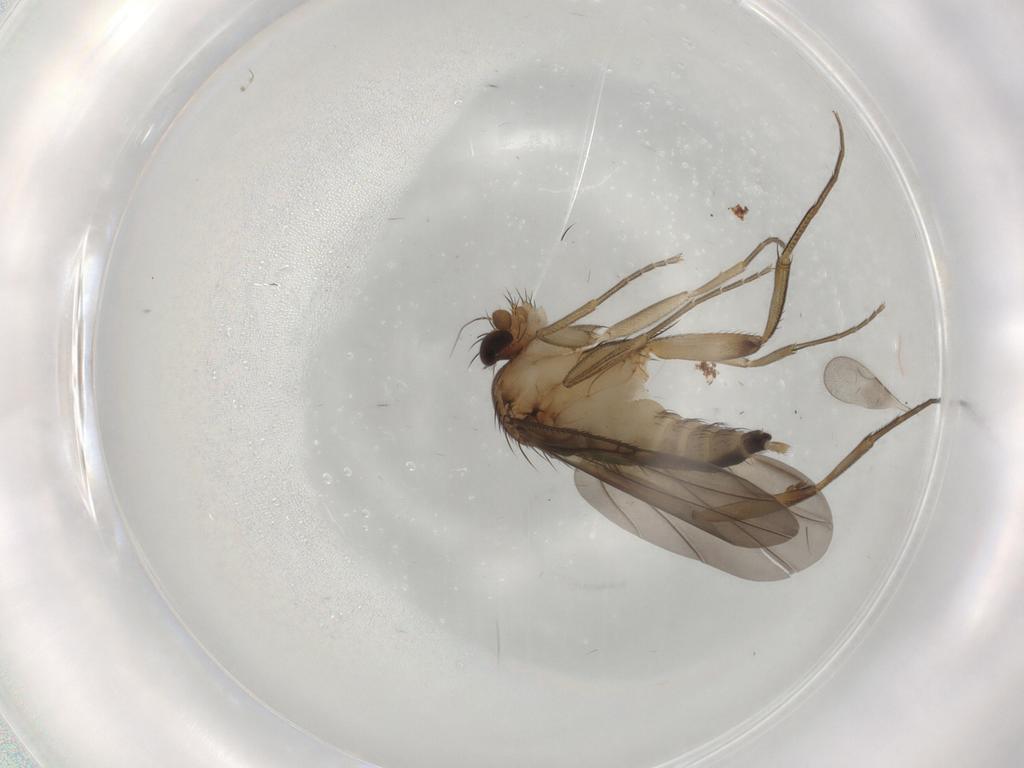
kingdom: Animalia
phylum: Arthropoda
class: Insecta
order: Diptera
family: Phoridae
